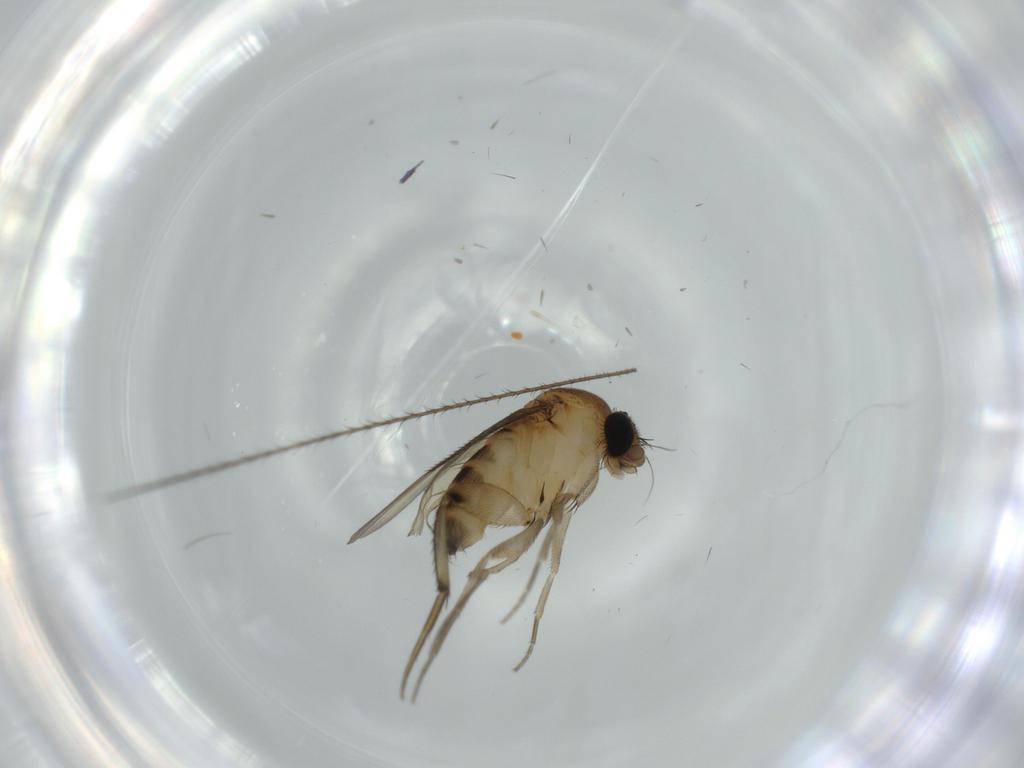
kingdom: Animalia
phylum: Arthropoda
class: Insecta
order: Diptera
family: Phoridae
